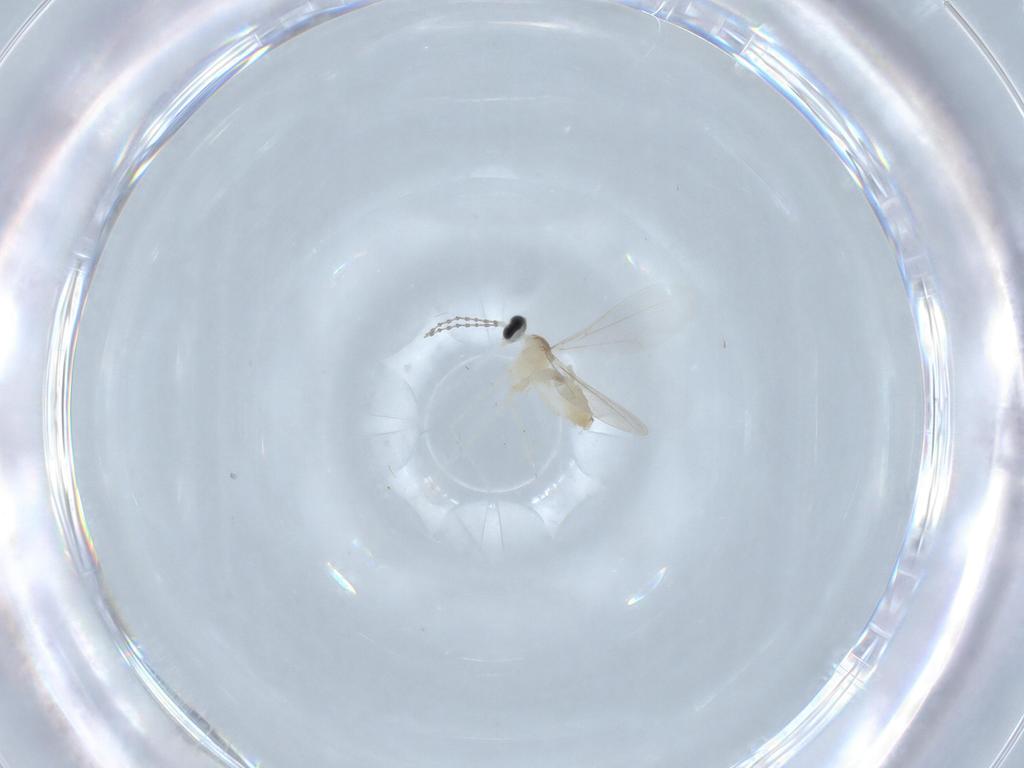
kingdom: Animalia
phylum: Arthropoda
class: Insecta
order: Diptera
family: Cecidomyiidae
